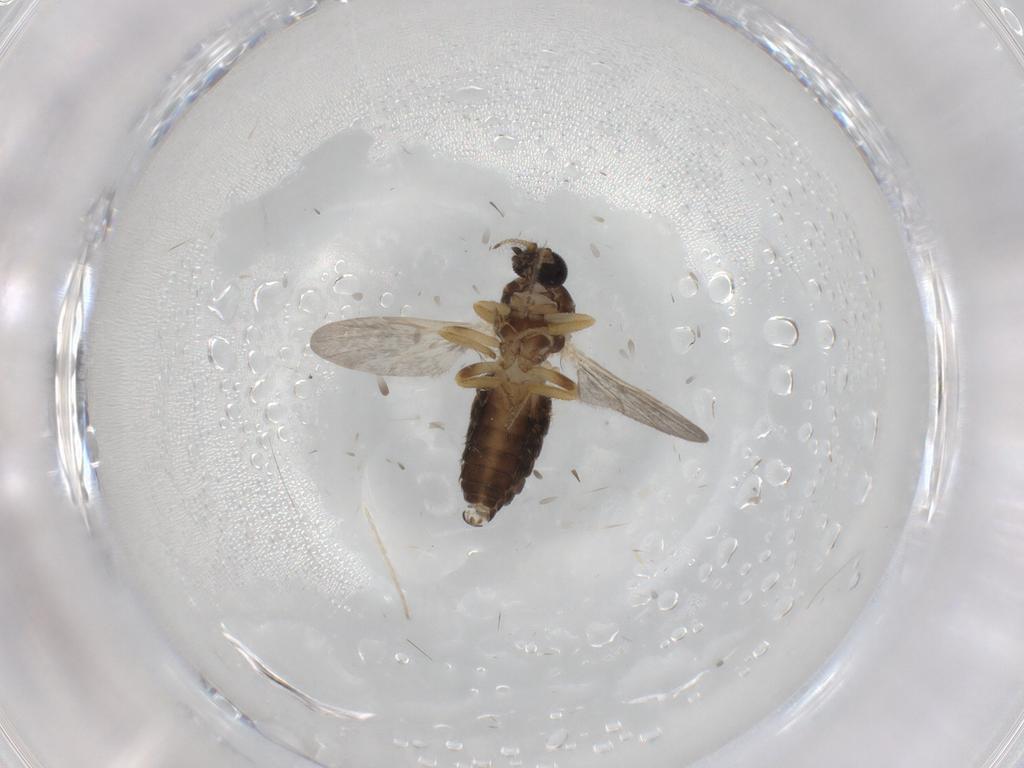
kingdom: Animalia
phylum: Arthropoda
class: Insecta
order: Diptera
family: Ceratopogonidae
